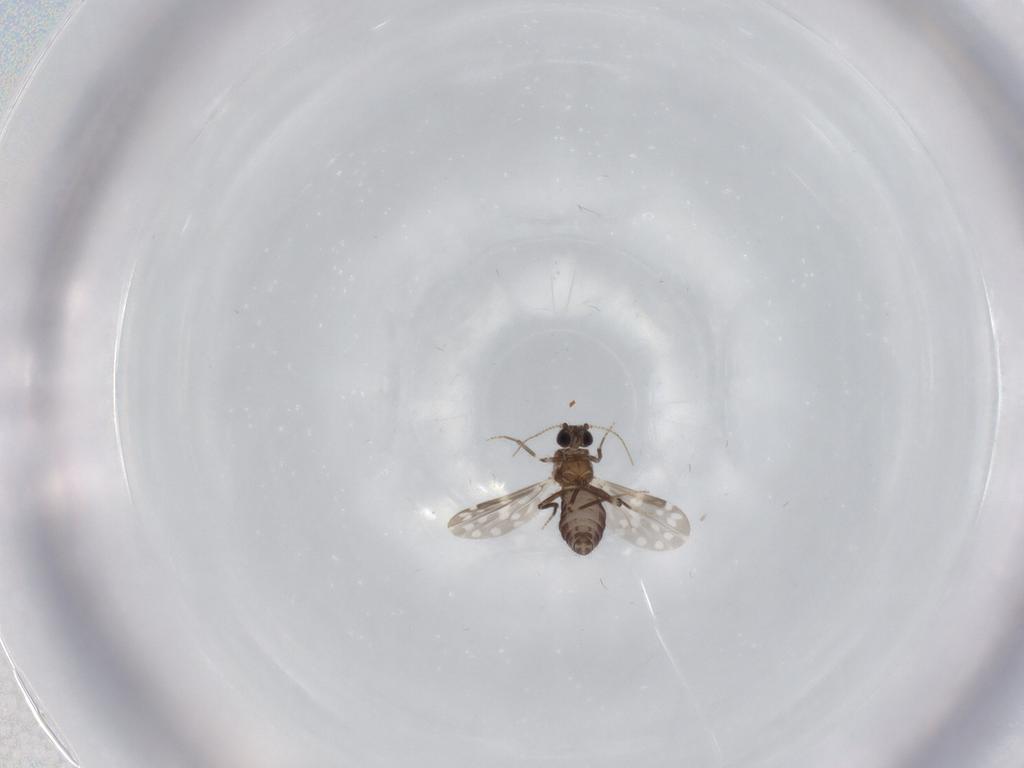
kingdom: Animalia
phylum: Arthropoda
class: Insecta
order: Diptera
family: Ceratopogonidae
